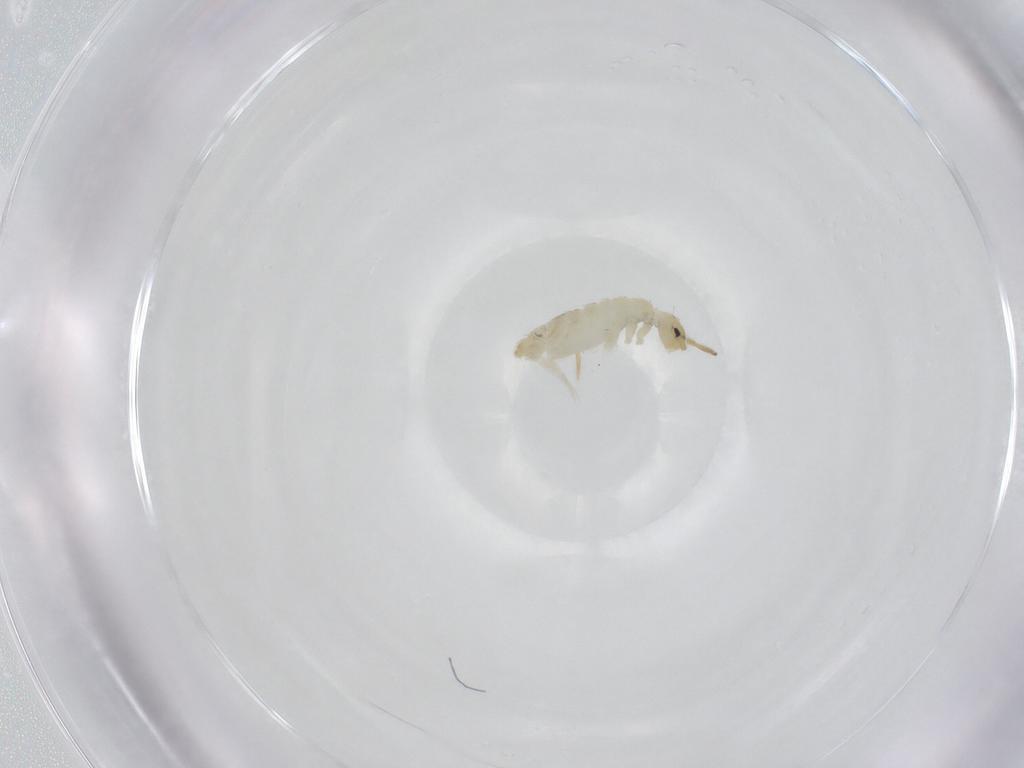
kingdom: Animalia
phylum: Arthropoda
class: Collembola
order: Entomobryomorpha
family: Entomobryidae
